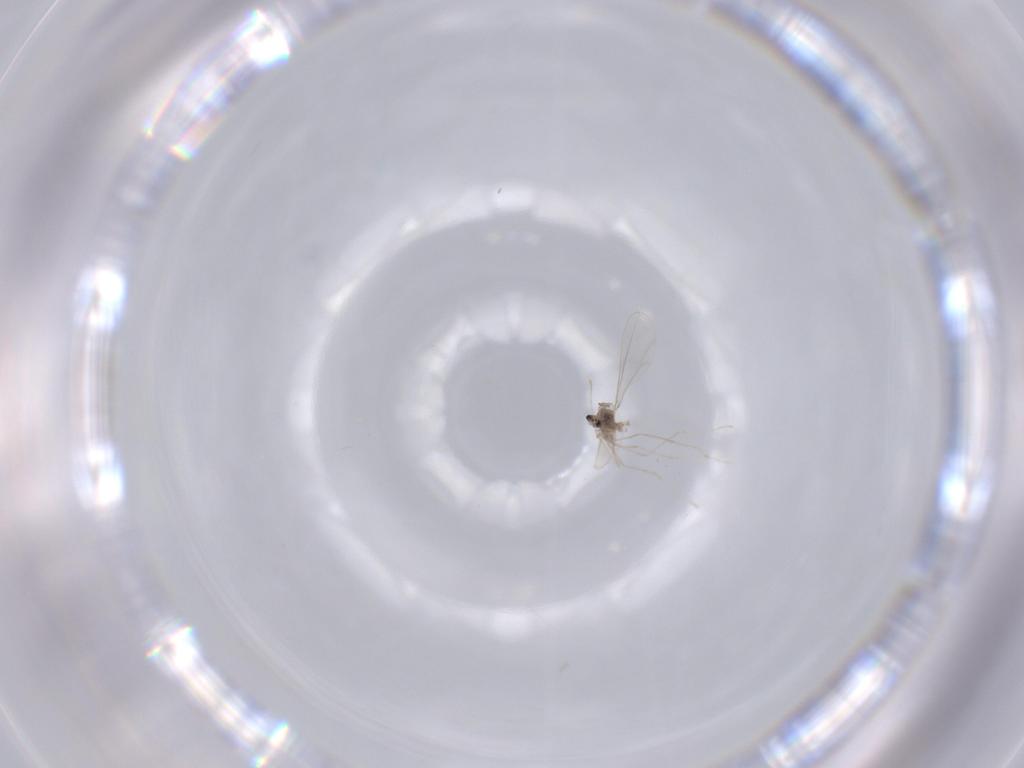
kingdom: Animalia
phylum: Arthropoda
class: Insecta
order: Diptera
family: Cecidomyiidae
